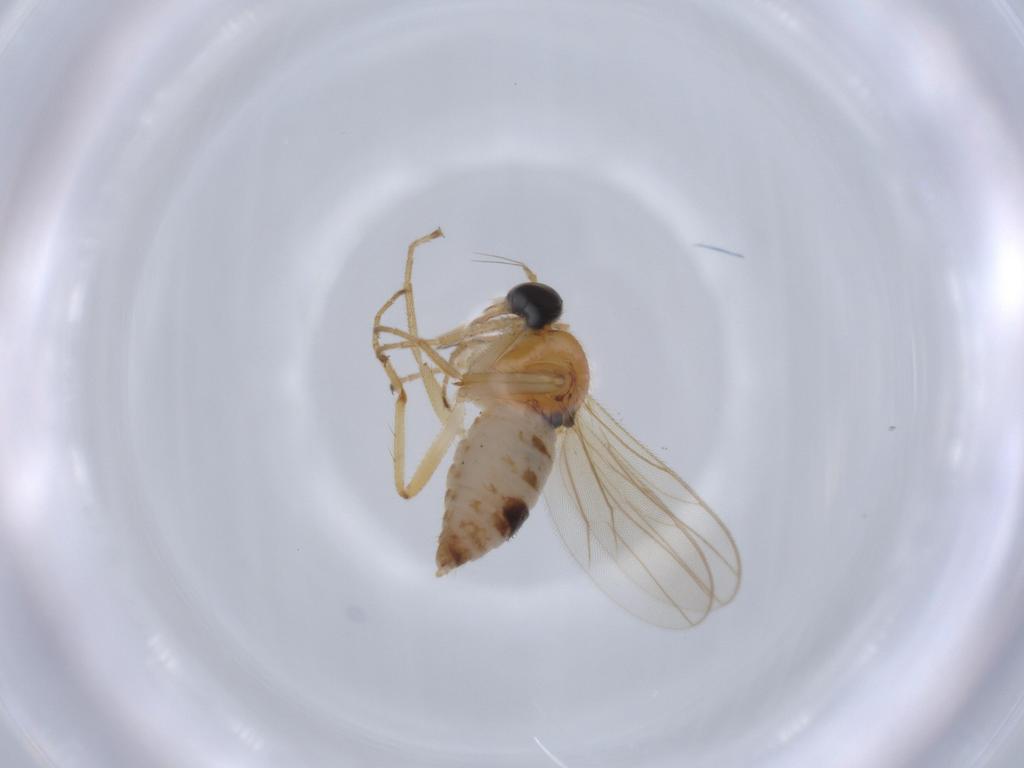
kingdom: Animalia
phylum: Arthropoda
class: Insecta
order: Diptera
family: Hybotidae
